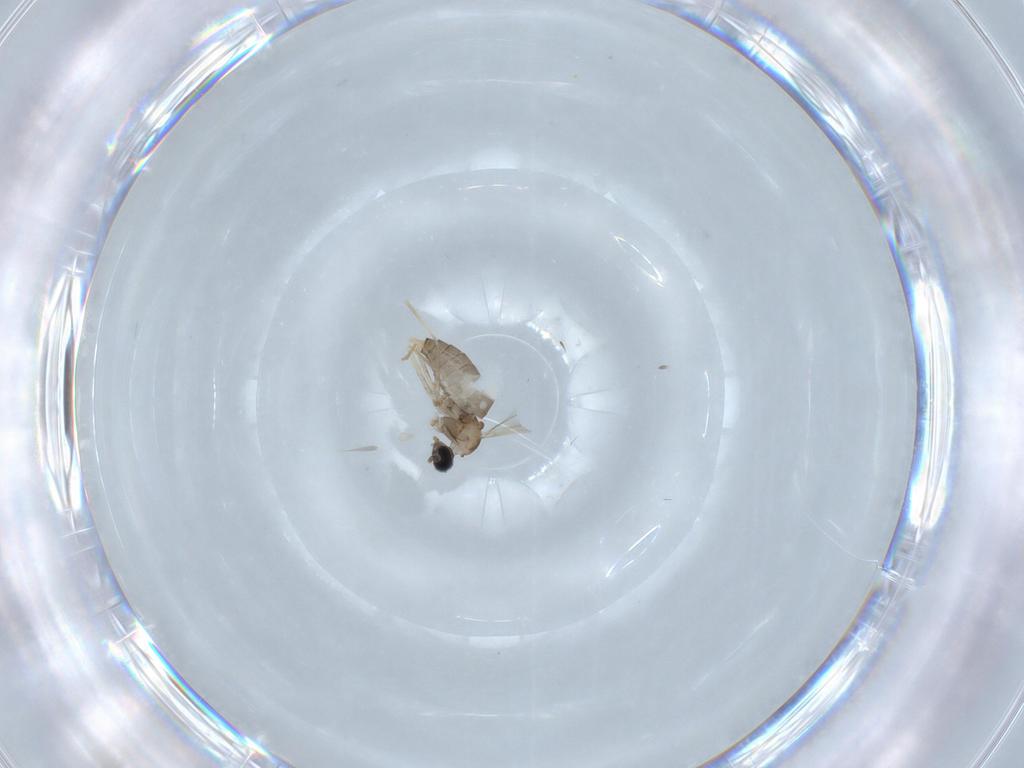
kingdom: Animalia
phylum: Arthropoda
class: Insecta
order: Diptera
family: Cecidomyiidae
